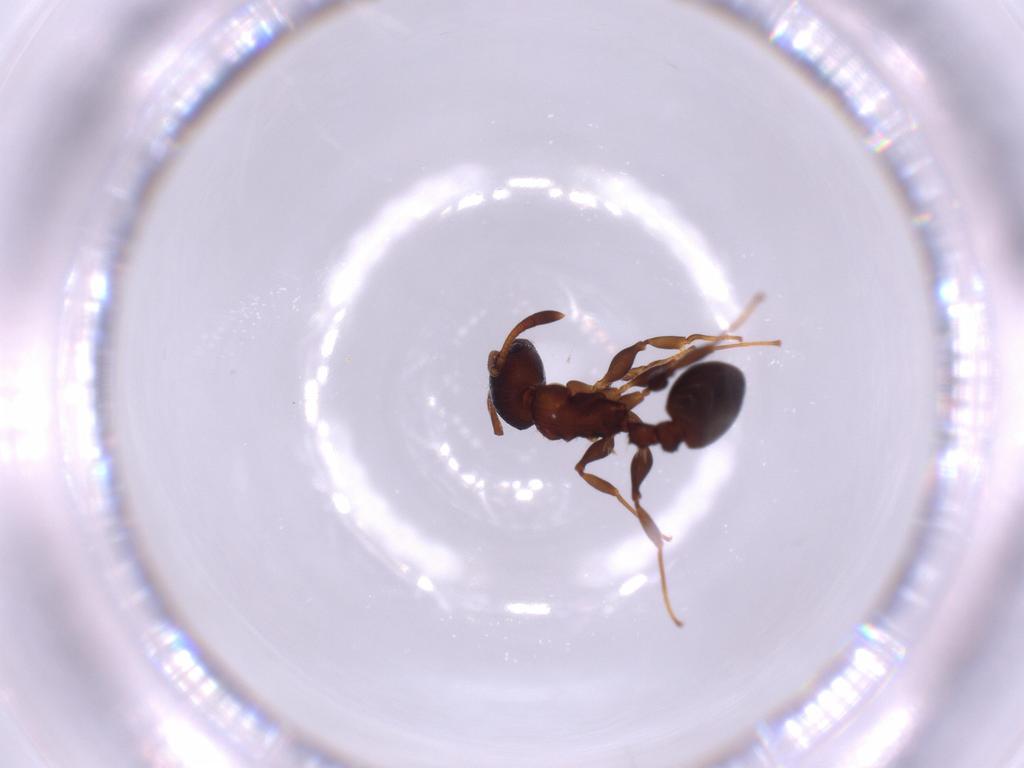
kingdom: Animalia
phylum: Arthropoda
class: Insecta
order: Hymenoptera
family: Formicidae
